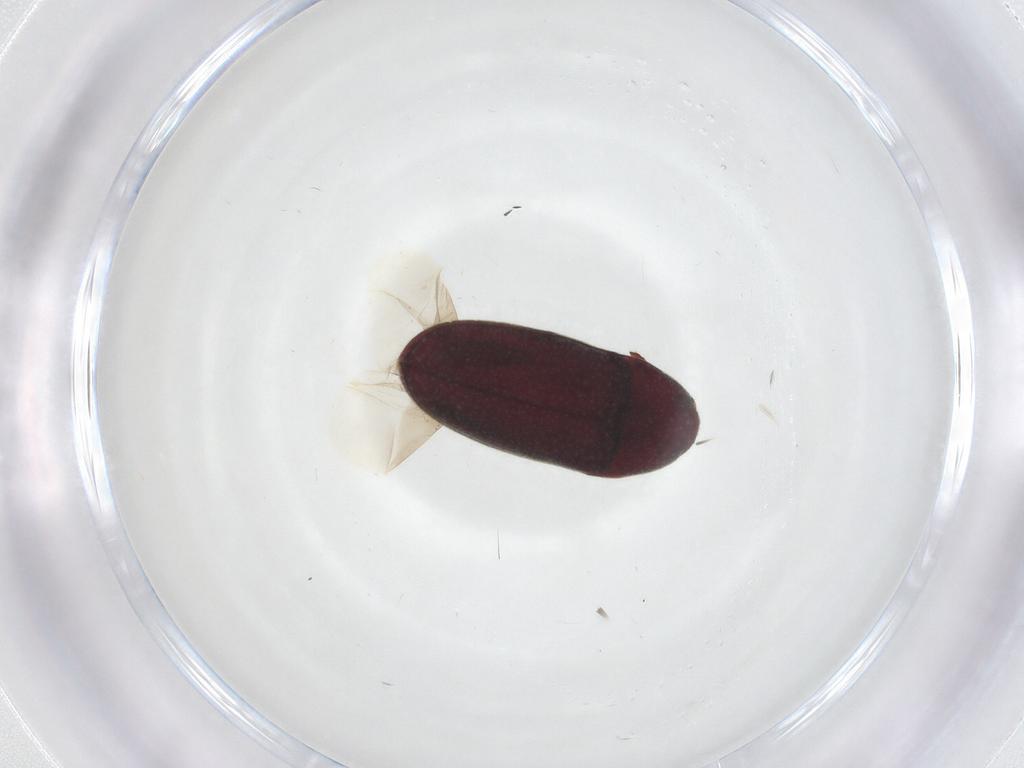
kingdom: Animalia
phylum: Arthropoda
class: Insecta
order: Coleoptera
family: Throscidae
